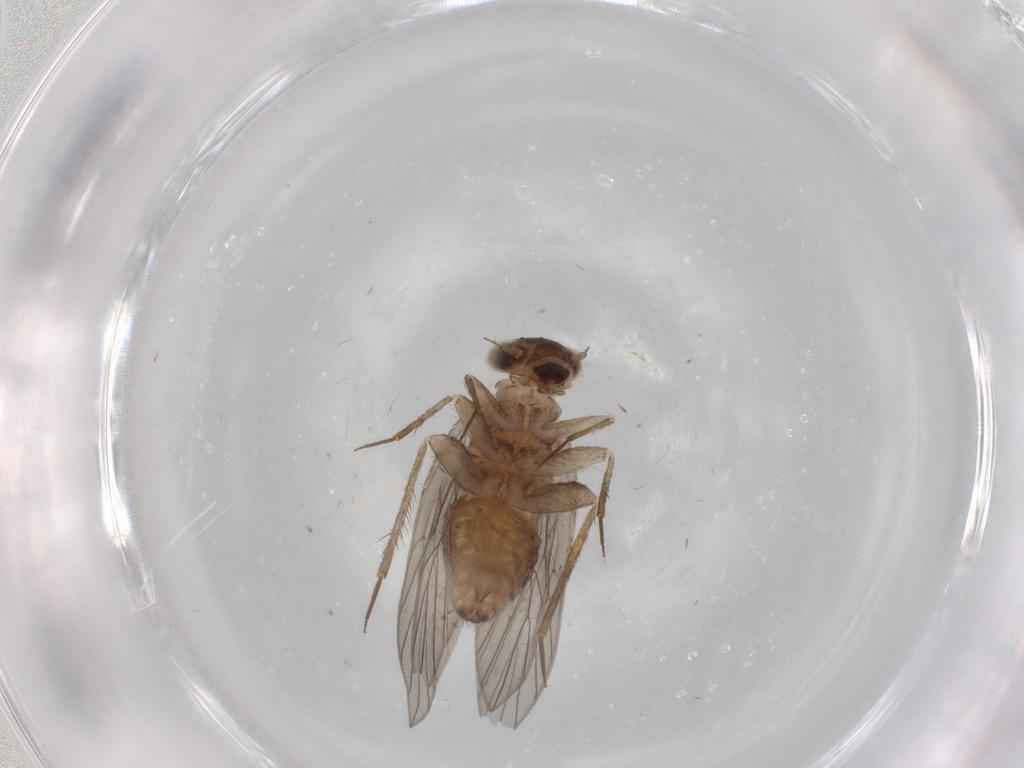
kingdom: Animalia
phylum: Arthropoda
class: Insecta
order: Psocodea
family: Lepidopsocidae
